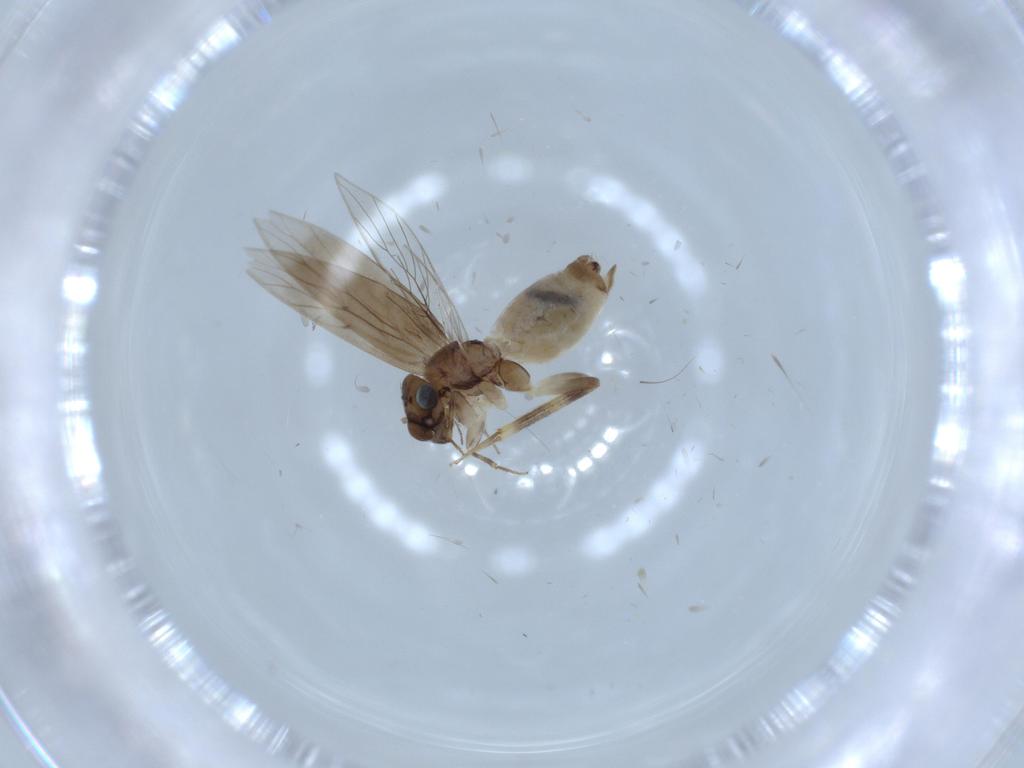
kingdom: Animalia
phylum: Arthropoda
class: Insecta
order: Psocodea
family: Lepidopsocidae
